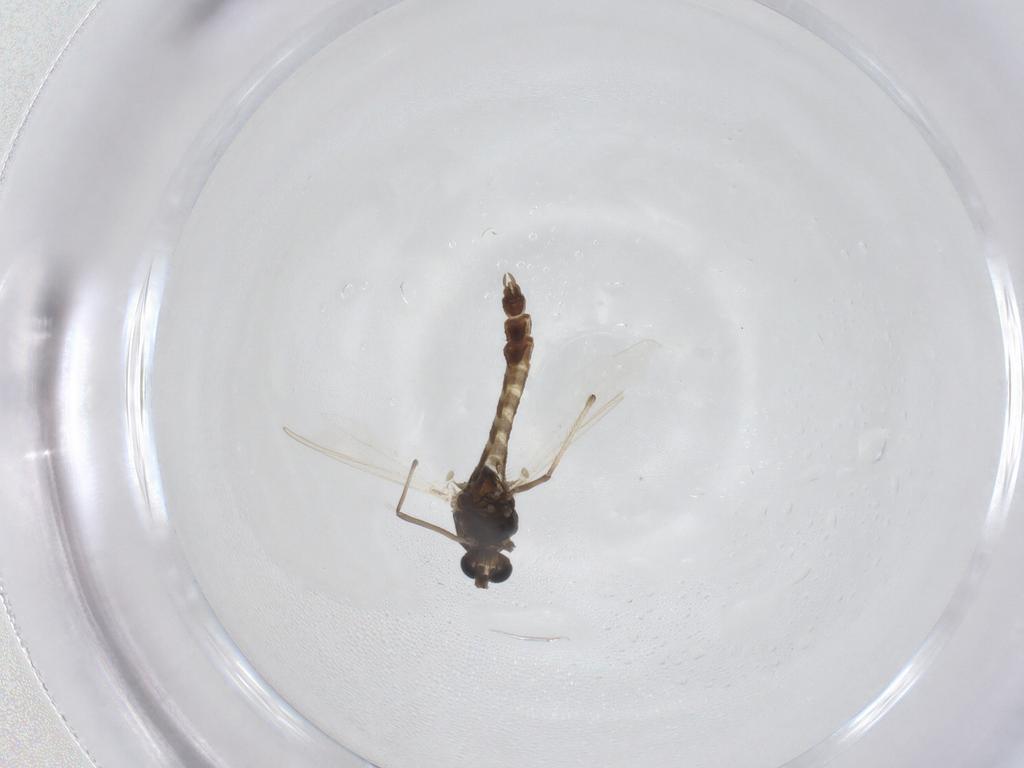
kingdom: Animalia
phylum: Arthropoda
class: Insecta
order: Diptera
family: Chironomidae
